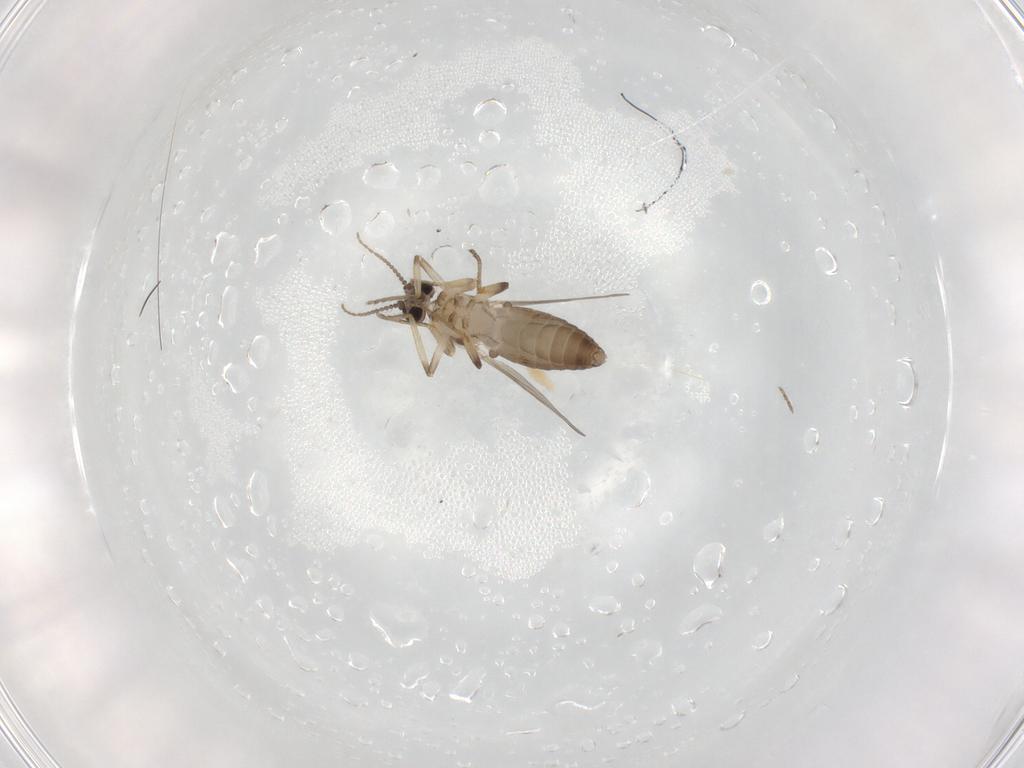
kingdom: Animalia
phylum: Arthropoda
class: Insecta
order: Diptera
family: Ceratopogonidae
